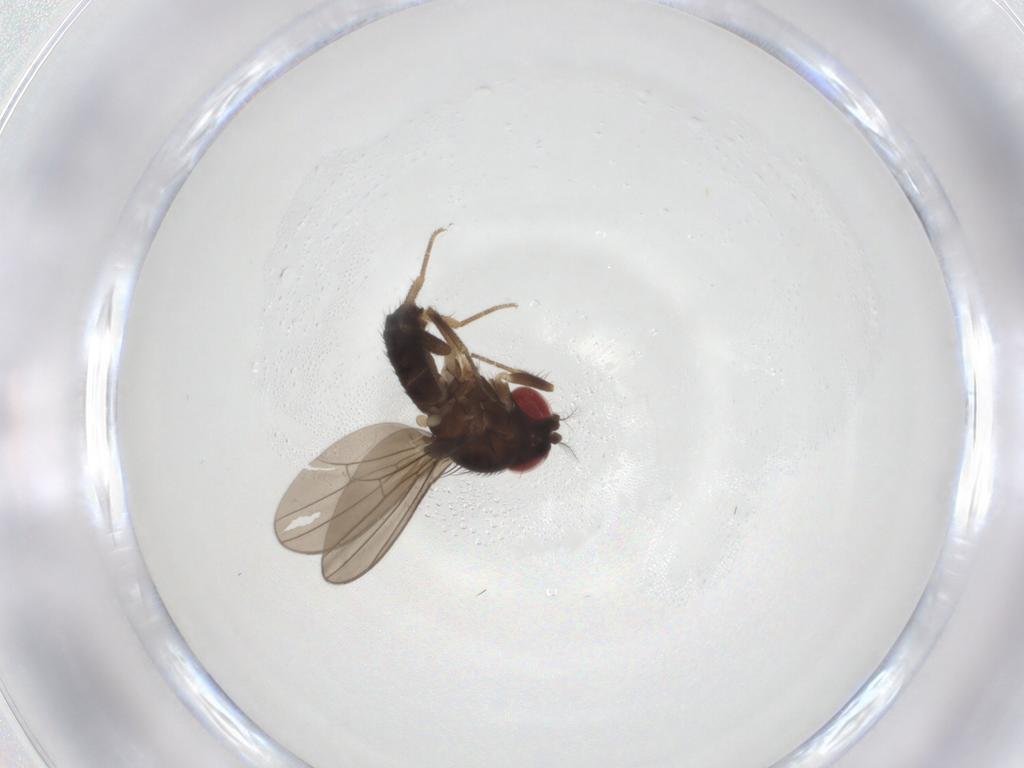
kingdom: Animalia
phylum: Arthropoda
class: Insecta
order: Diptera
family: Drosophilidae
